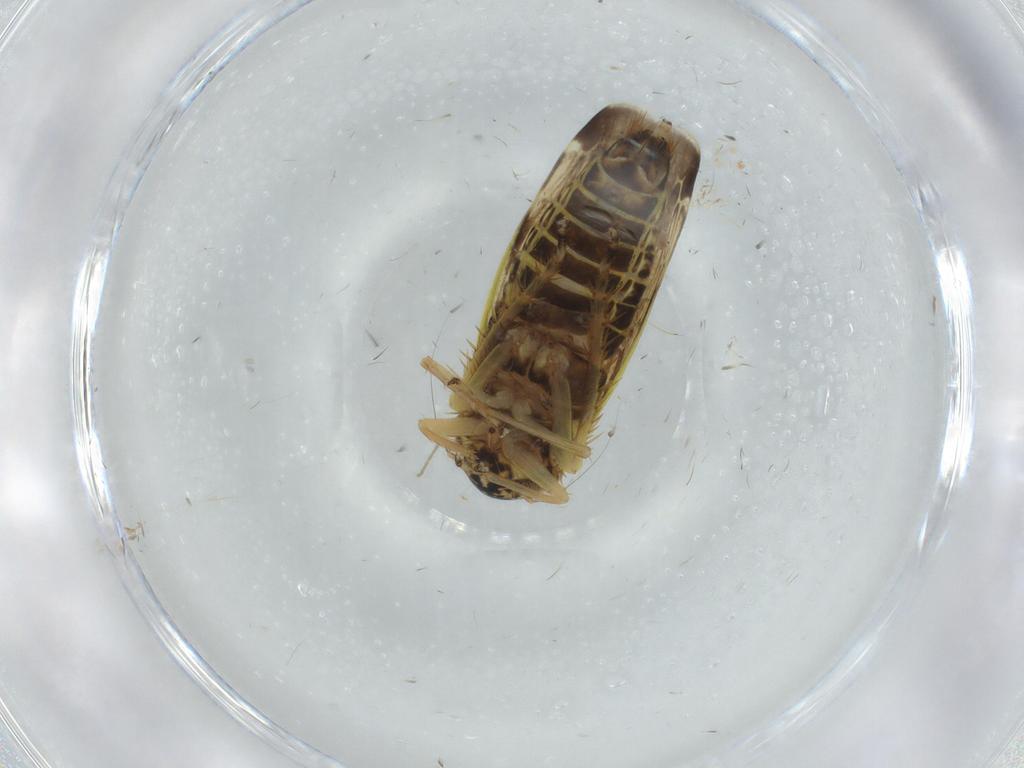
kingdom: Animalia
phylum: Arthropoda
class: Insecta
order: Hemiptera
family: Cicadellidae
